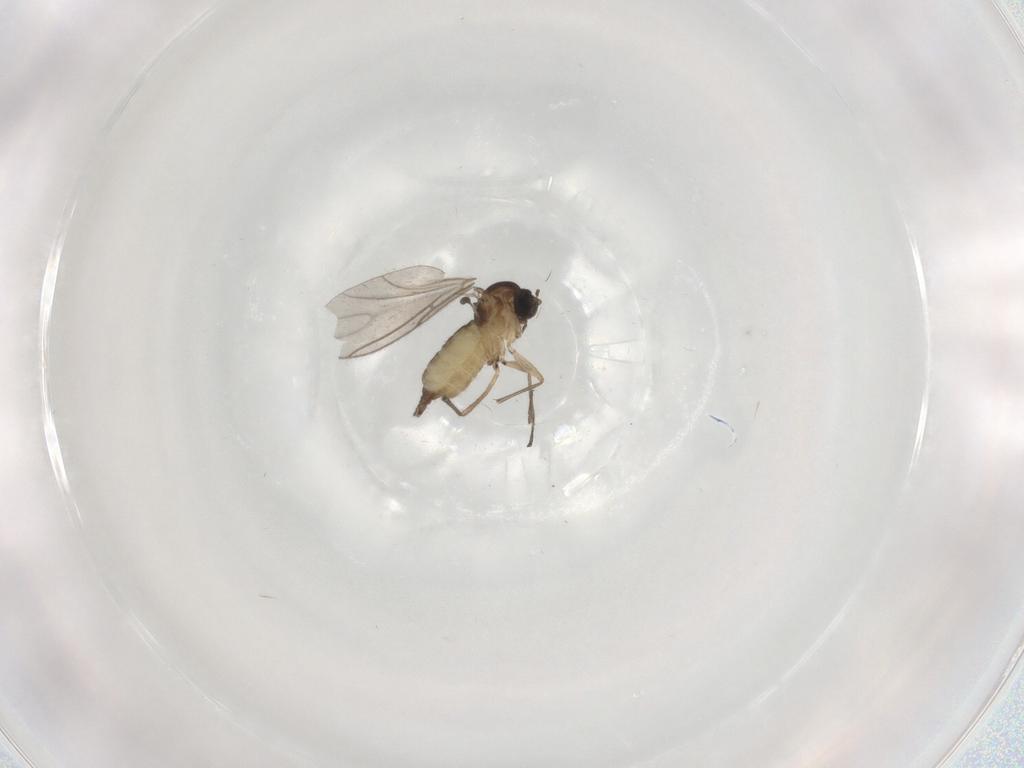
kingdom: Animalia
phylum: Arthropoda
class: Insecta
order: Diptera
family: Sciaridae
